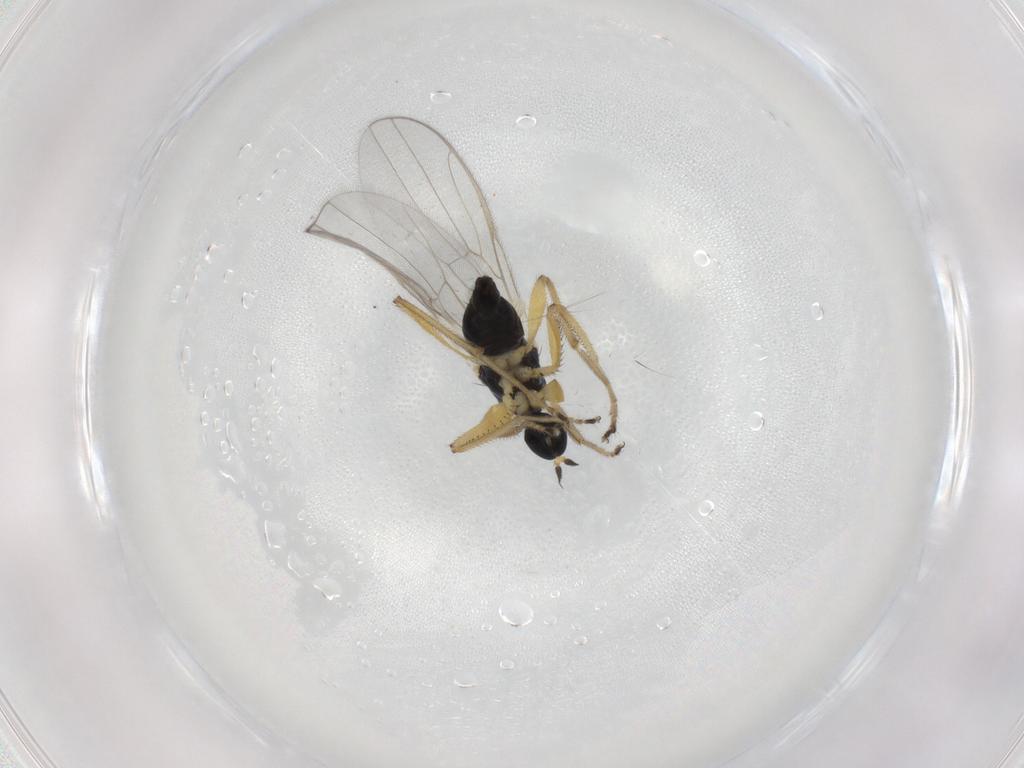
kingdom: Animalia
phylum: Arthropoda
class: Insecta
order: Diptera
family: Hybotidae
